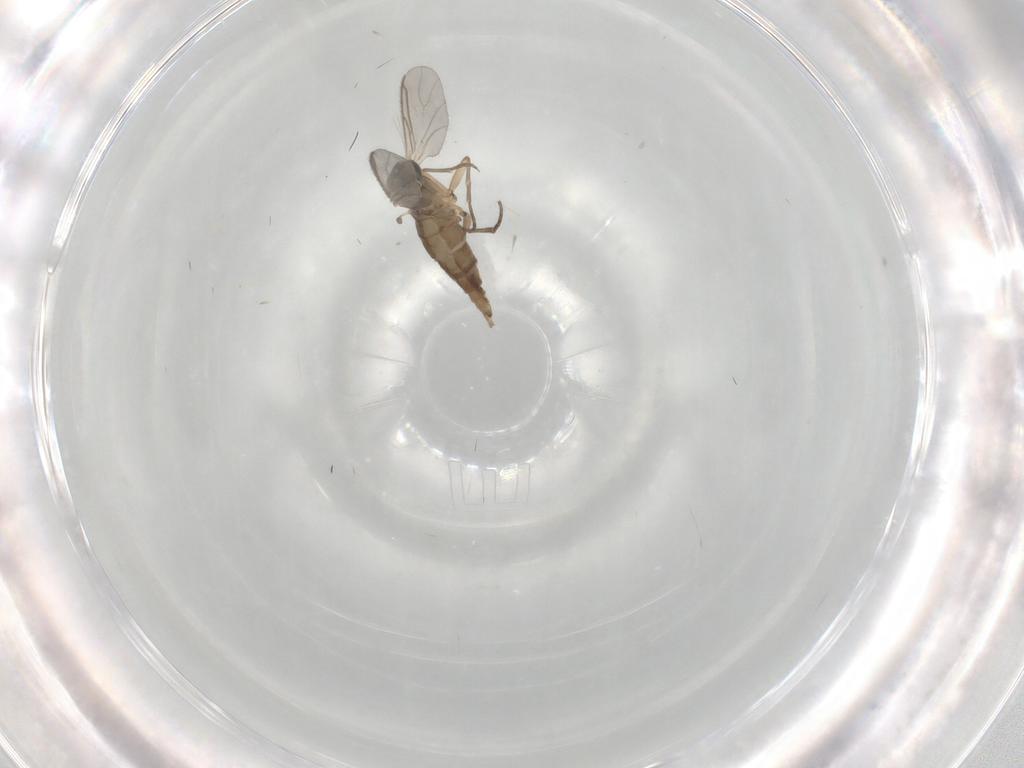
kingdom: Animalia
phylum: Arthropoda
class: Insecta
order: Diptera
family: Sciaridae
